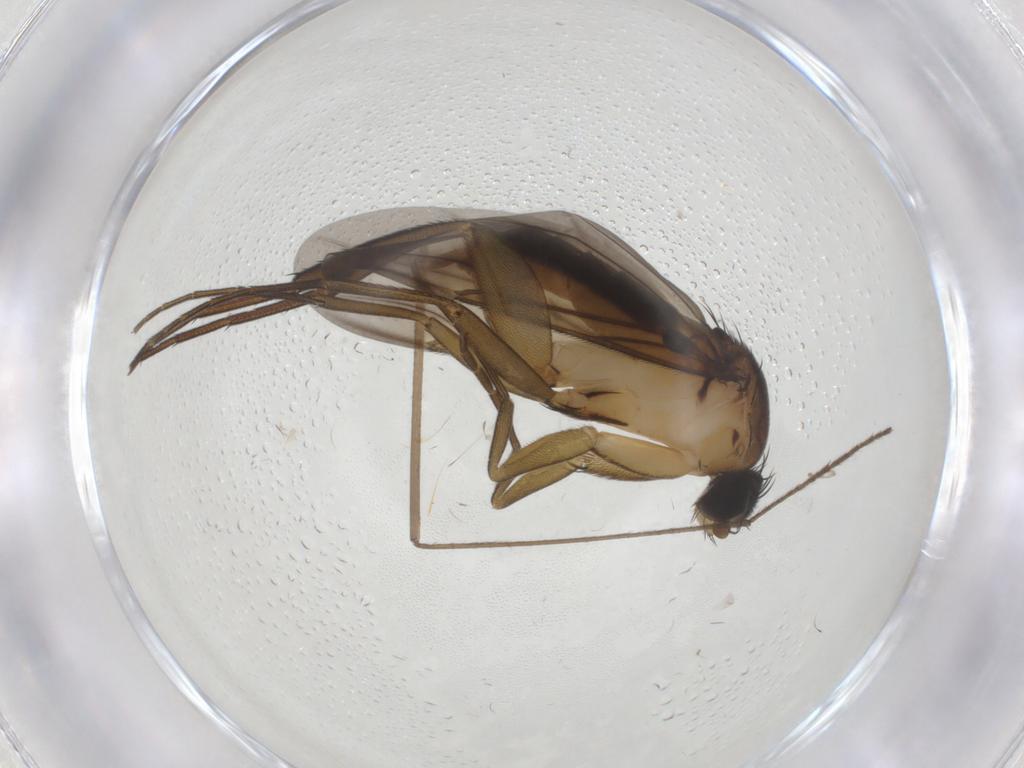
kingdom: Animalia
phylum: Arthropoda
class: Insecta
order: Diptera
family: Phoridae
